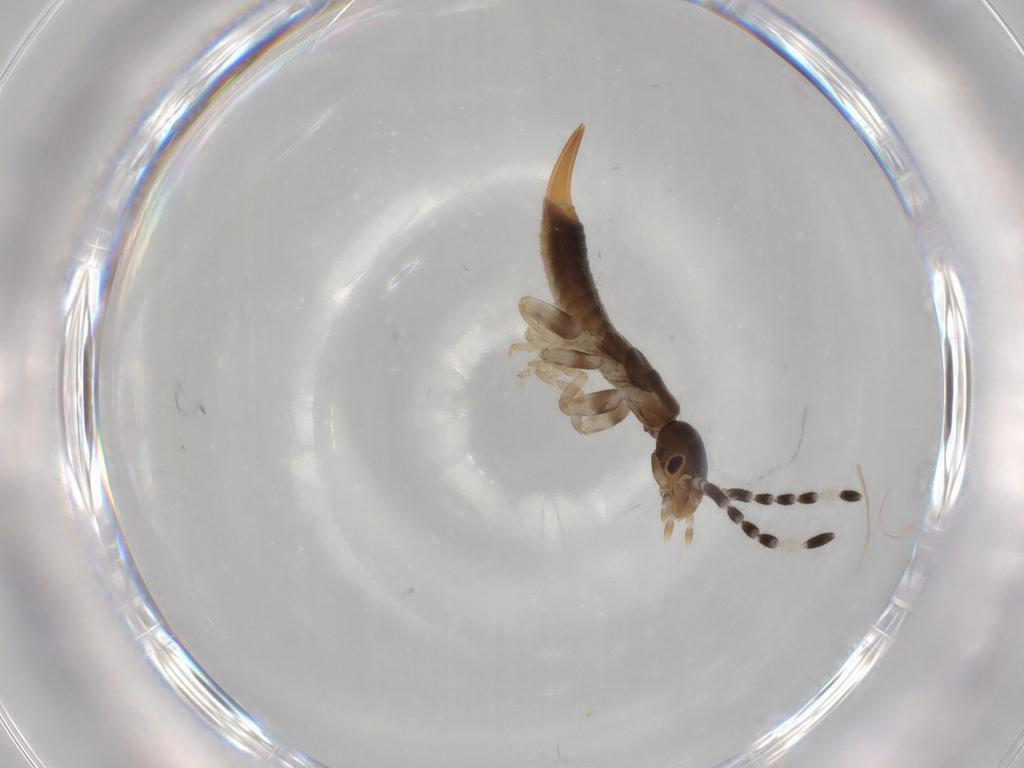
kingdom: Animalia
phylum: Arthropoda
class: Insecta
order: Dermaptera
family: Anisolabididae
